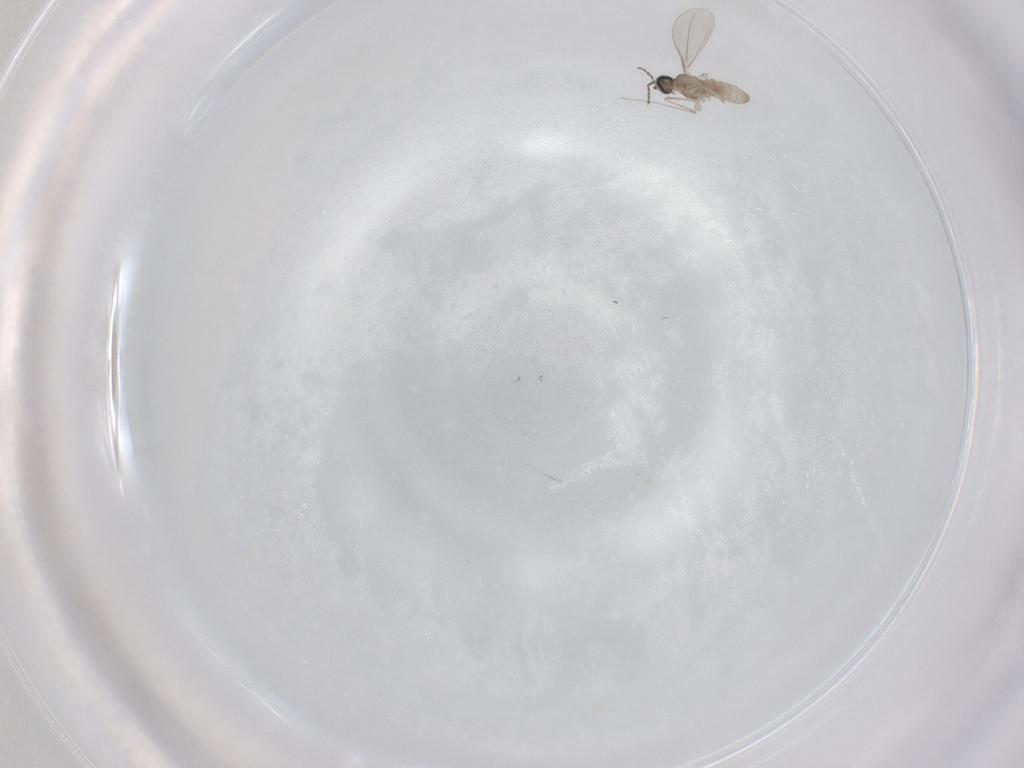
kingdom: Animalia
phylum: Arthropoda
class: Insecta
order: Diptera
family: Cecidomyiidae
